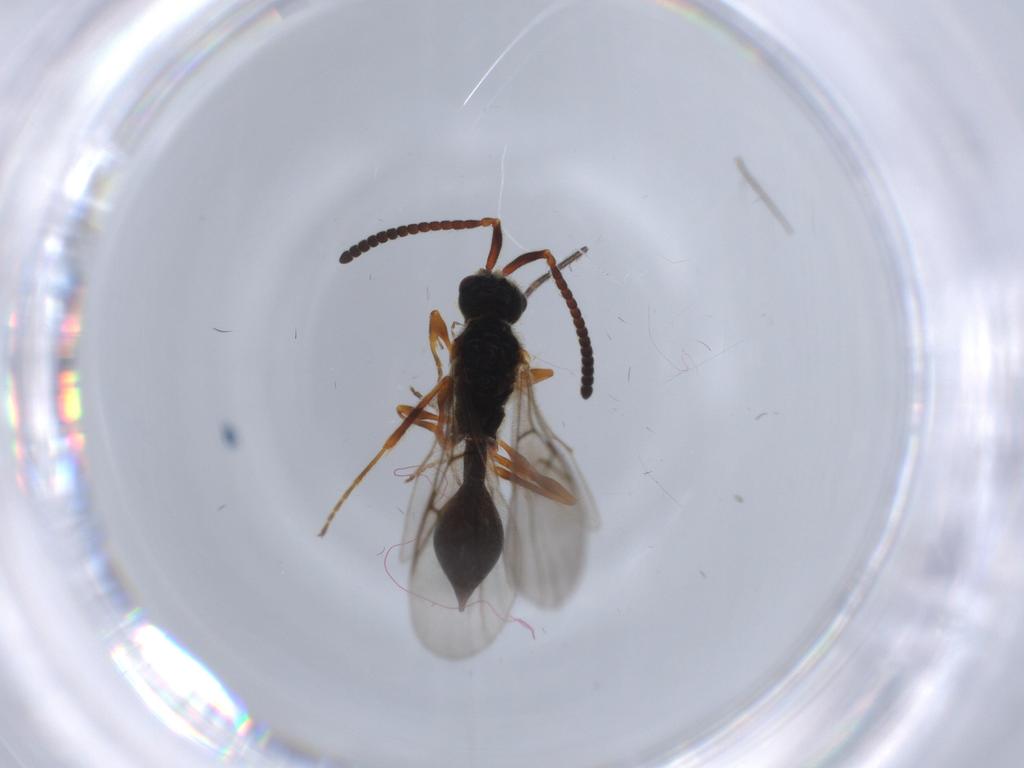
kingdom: Animalia
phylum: Arthropoda
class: Insecta
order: Hymenoptera
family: Diapriidae
